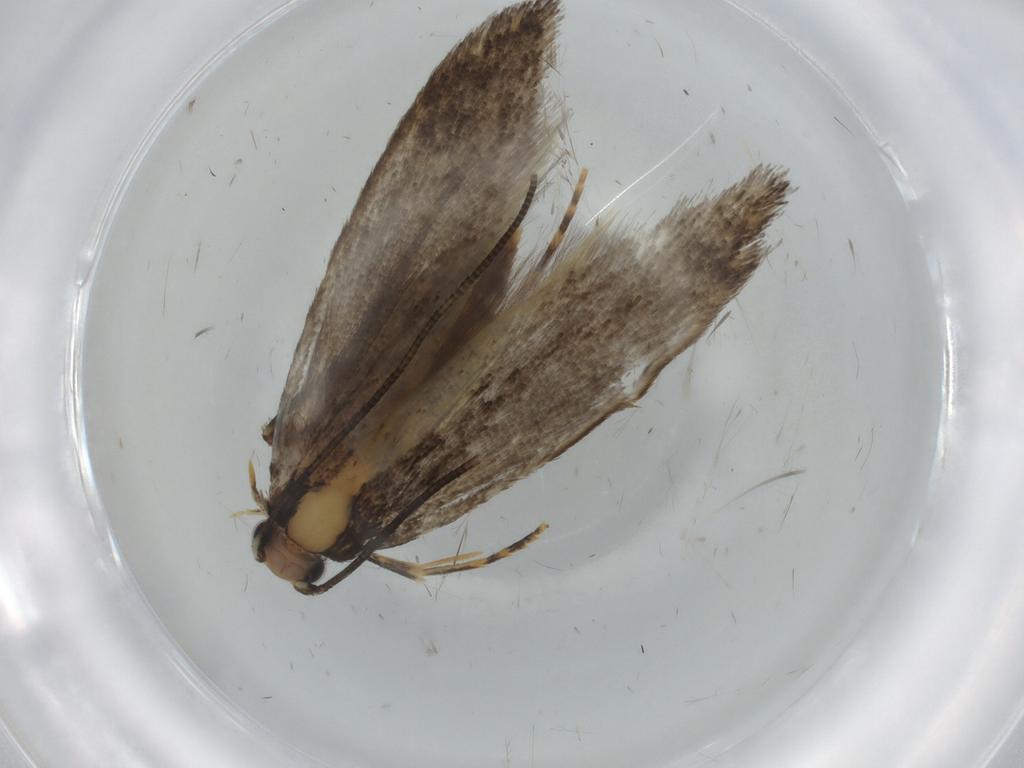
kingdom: Animalia
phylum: Arthropoda
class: Insecta
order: Lepidoptera
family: Tineidae
